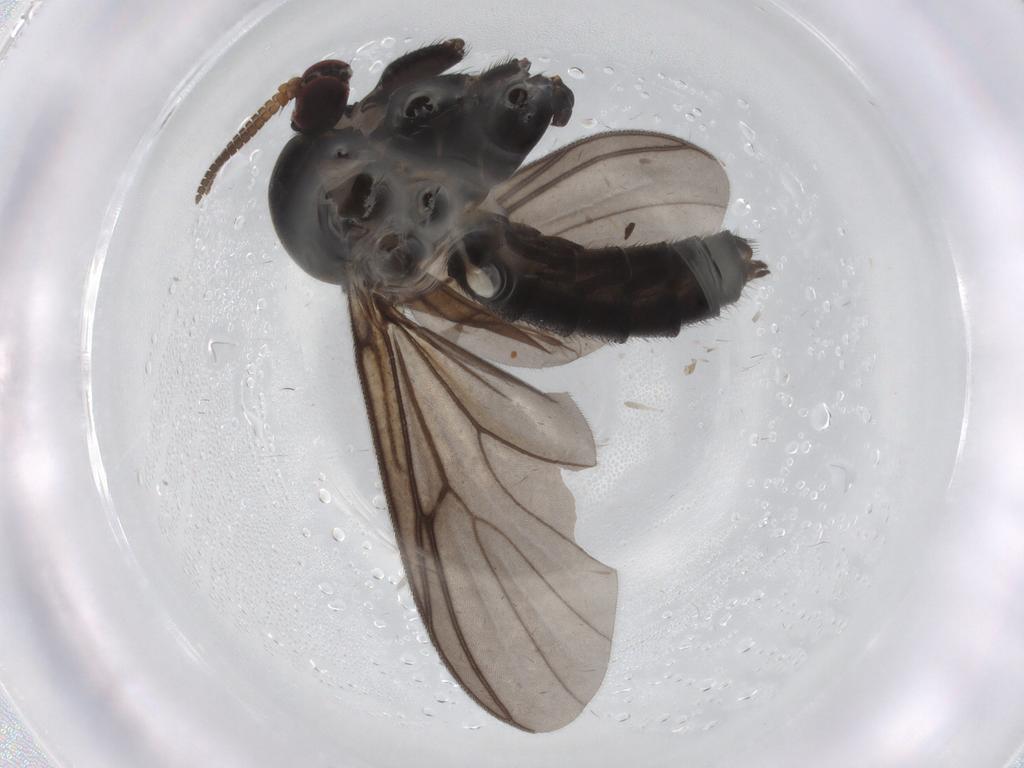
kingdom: Animalia
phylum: Arthropoda
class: Insecta
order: Diptera
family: Mycetophilidae
